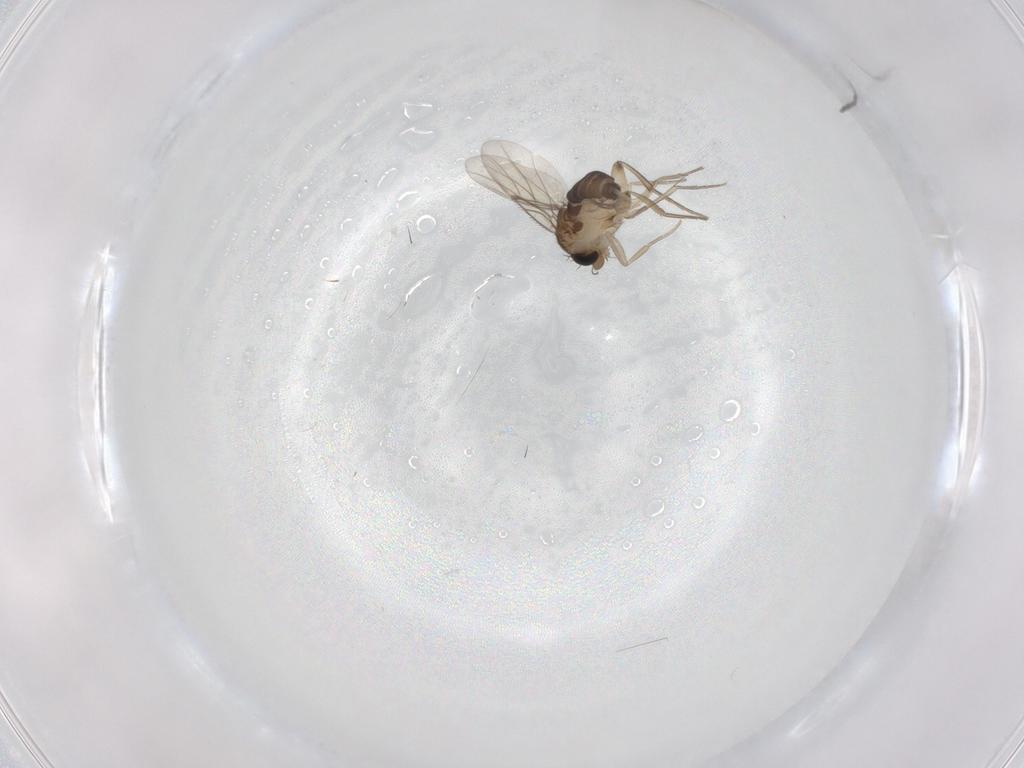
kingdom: Animalia
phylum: Arthropoda
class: Insecta
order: Diptera
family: Phoridae
